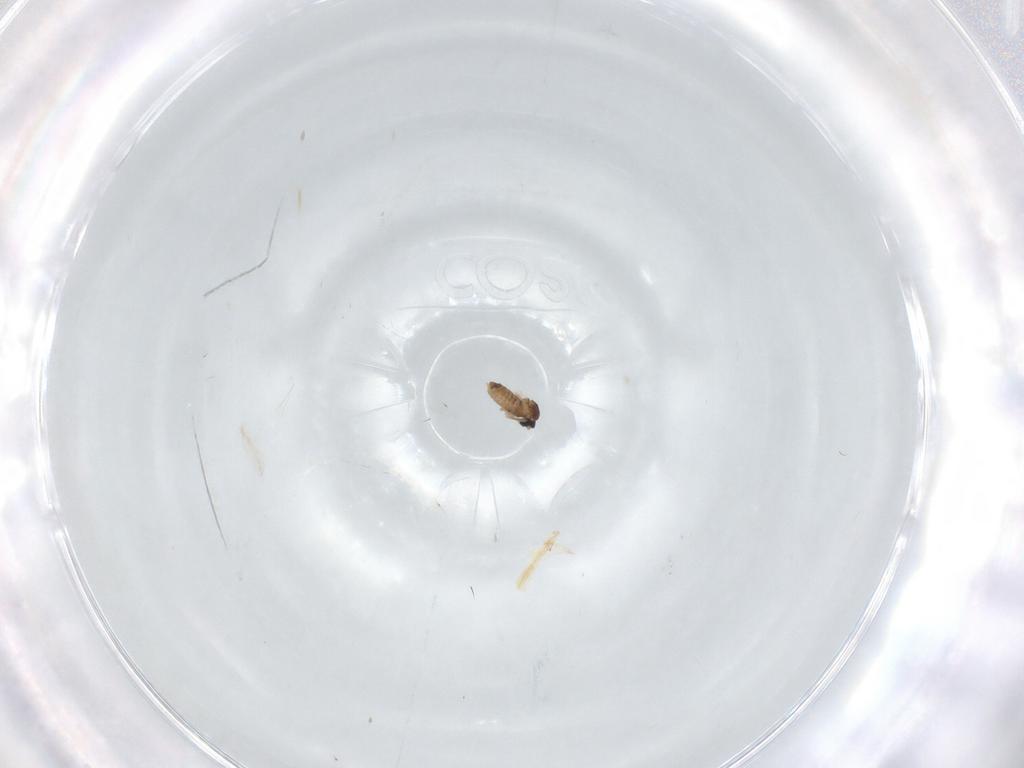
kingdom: Animalia
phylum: Arthropoda
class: Insecta
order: Diptera
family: Cecidomyiidae
